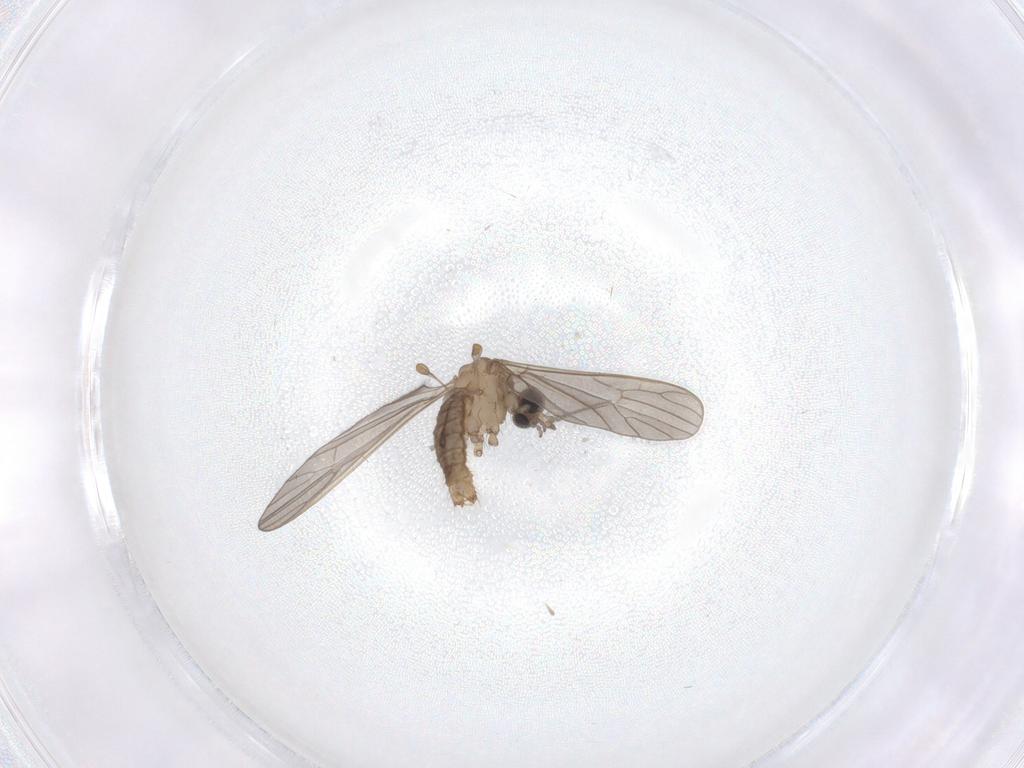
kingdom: Animalia
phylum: Arthropoda
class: Insecta
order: Diptera
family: Limoniidae
